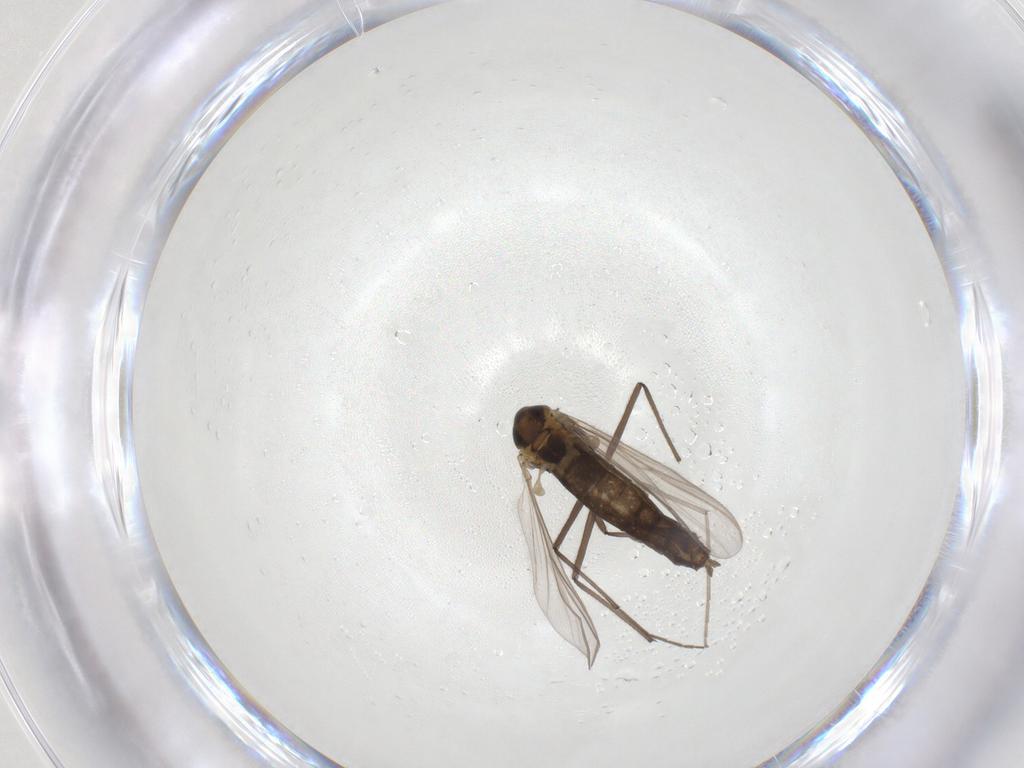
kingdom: Animalia
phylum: Arthropoda
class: Insecta
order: Diptera
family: Chironomidae
